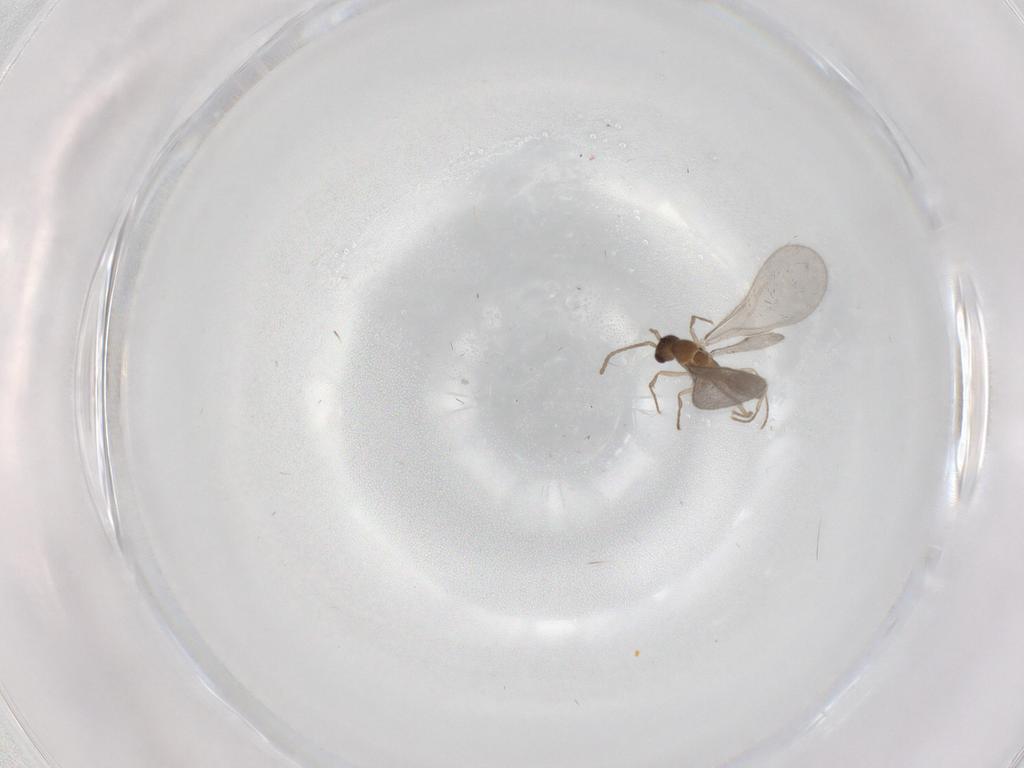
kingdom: Animalia
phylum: Arthropoda
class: Insecta
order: Hymenoptera
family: Formicidae
